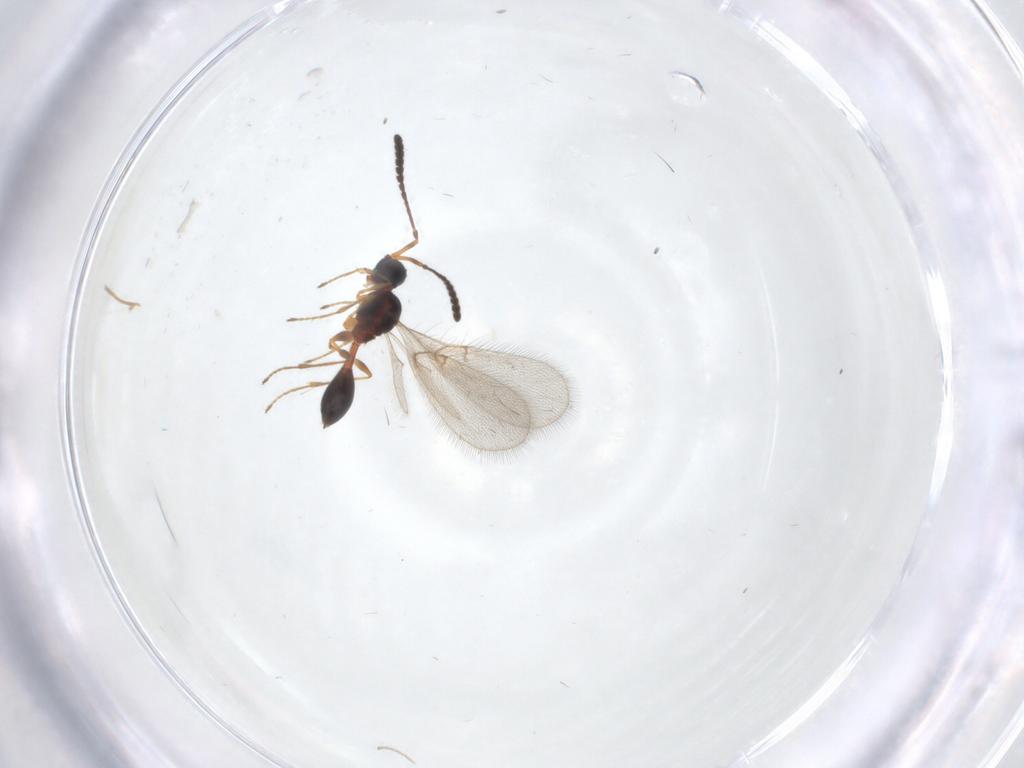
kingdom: Animalia
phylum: Arthropoda
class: Insecta
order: Hymenoptera
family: Diapriidae
